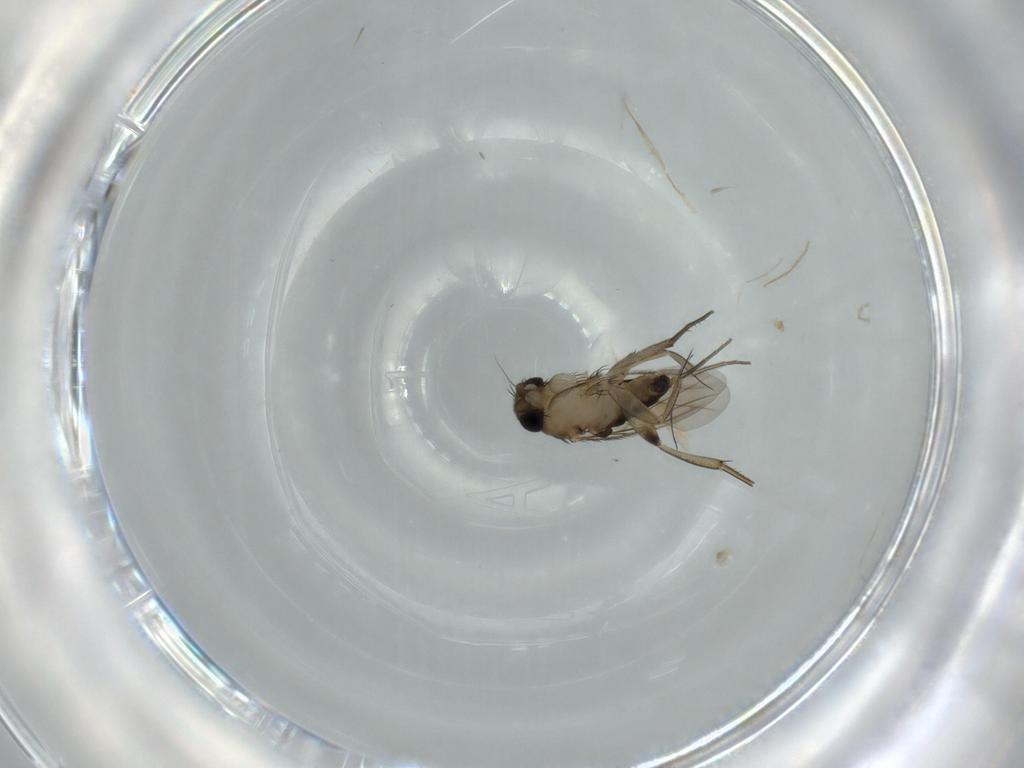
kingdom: Animalia
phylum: Arthropoda
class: Insecta
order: Diptera
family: Phoridae
